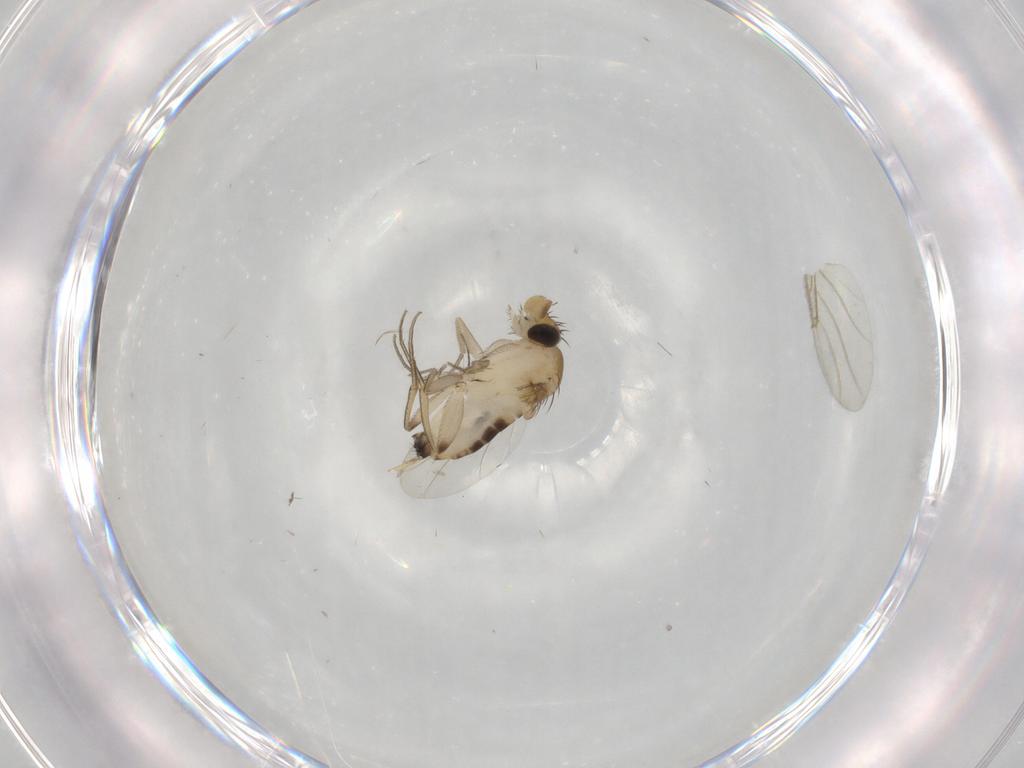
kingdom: Animalia
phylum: Arthropoda
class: Insecta
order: Diptera
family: Phoridae
